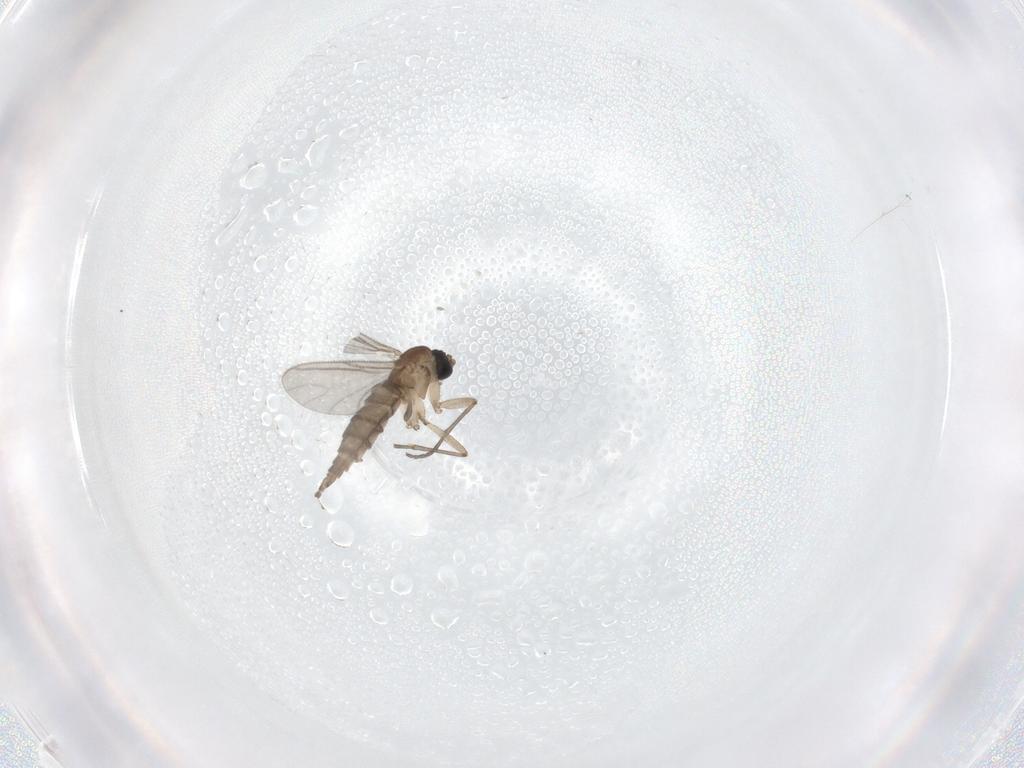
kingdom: Animalia
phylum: Arthropoda
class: Insecta
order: Diptera
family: Sciaridae
